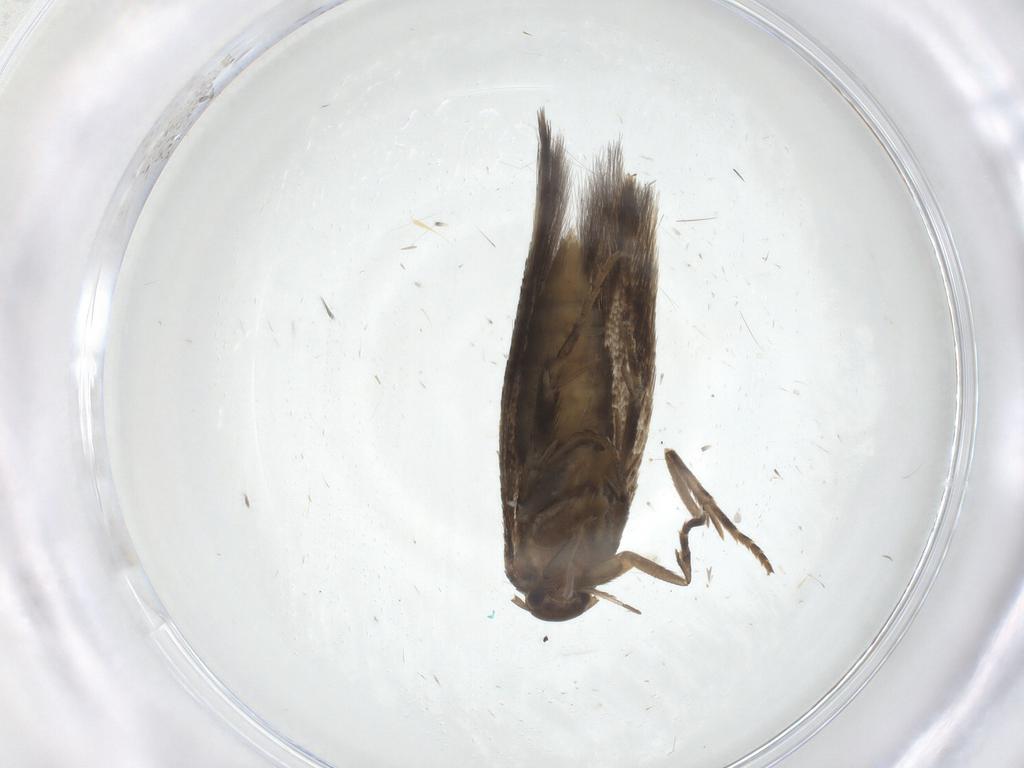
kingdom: Animalia
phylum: Arthropoda
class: Insecta
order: Lepidoptera
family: Elachistidae
